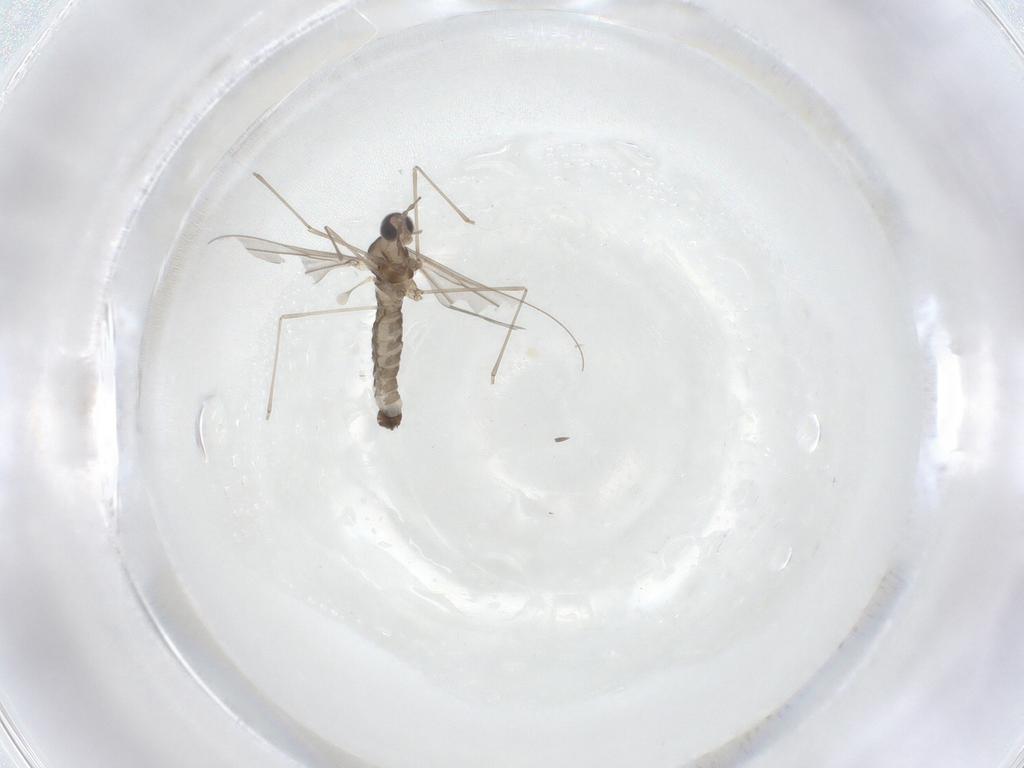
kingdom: Animalia
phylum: Arthropoda
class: Insecta
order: Diptera
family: Cecidomyiidae
